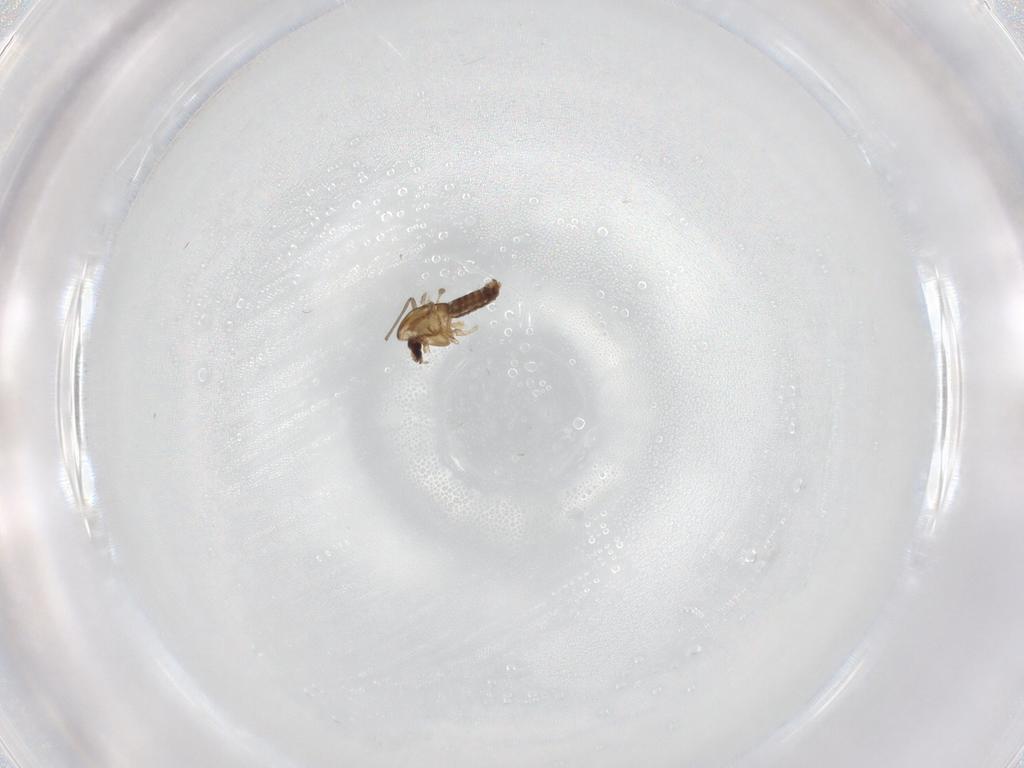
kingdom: Animalia
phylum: Arthropoda
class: Insecta
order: Diptera
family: Chironomidae
